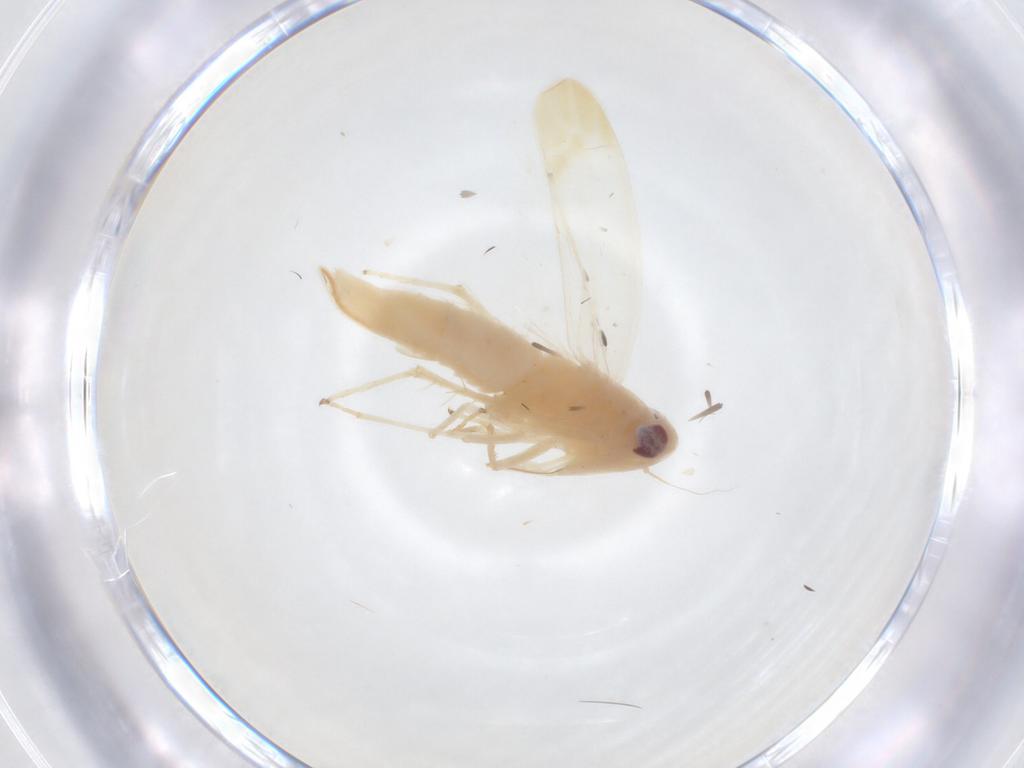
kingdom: Animalia
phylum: Arthropoda
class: Insecta
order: Hemiptera
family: Cicadellidae
